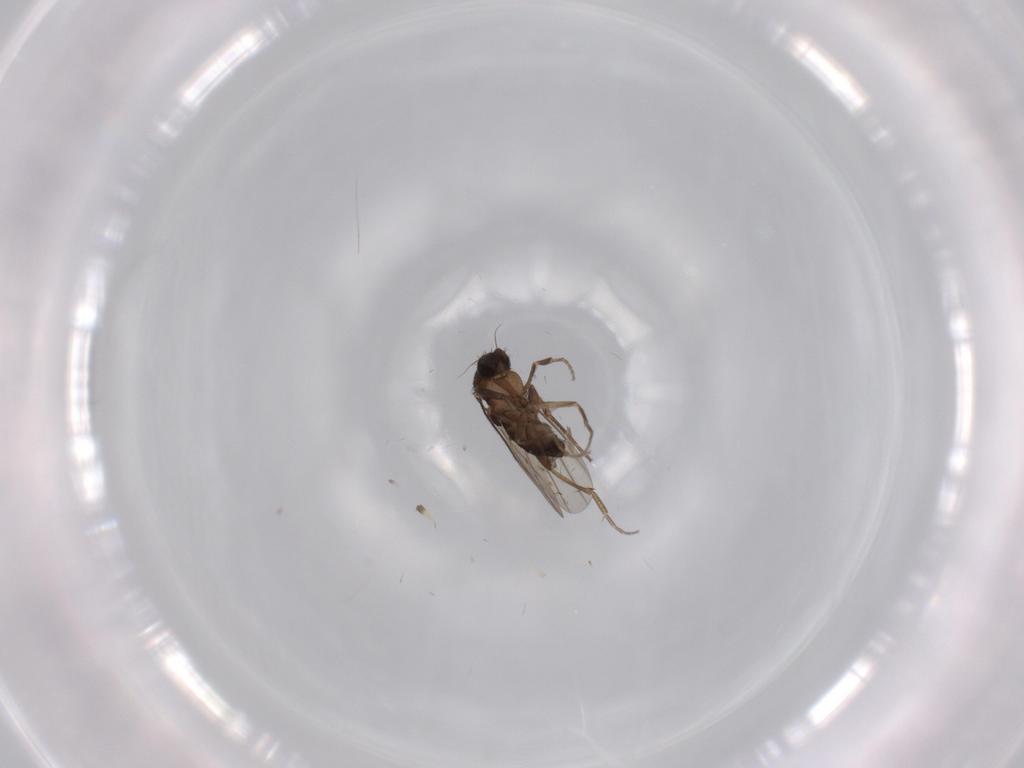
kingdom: Animalia
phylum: Arthropoda
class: Insecta
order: Diptera
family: Phoridae
